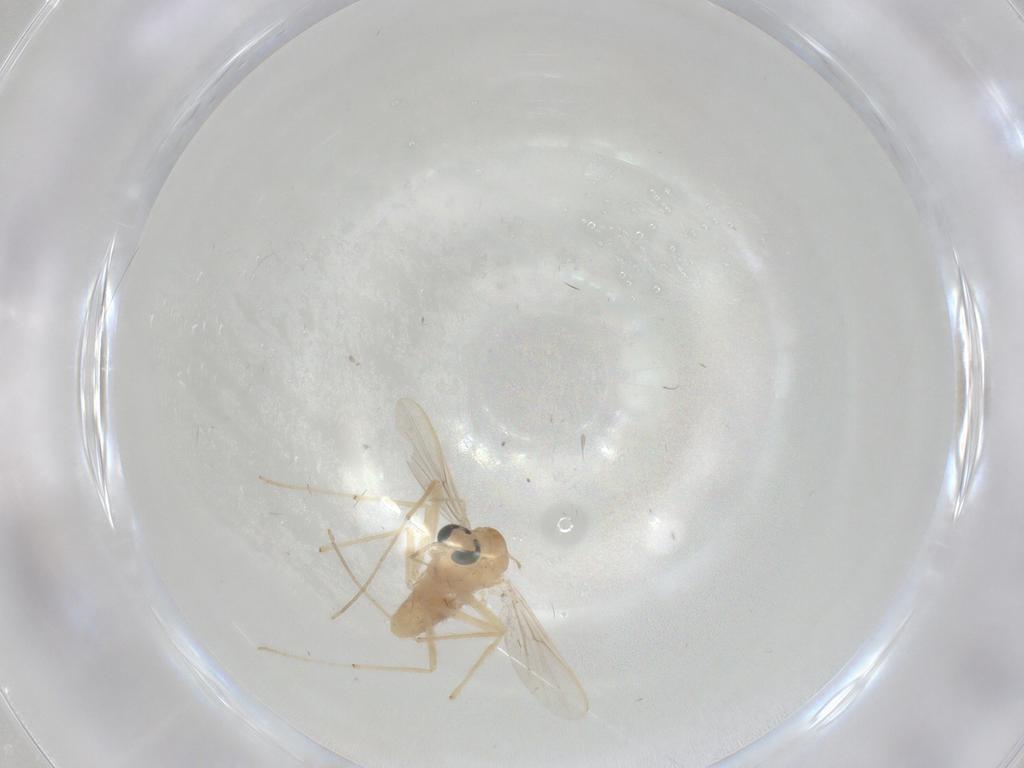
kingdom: Animalia
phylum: Arthropoda
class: Insecta
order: Diptera
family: Chironomidae
